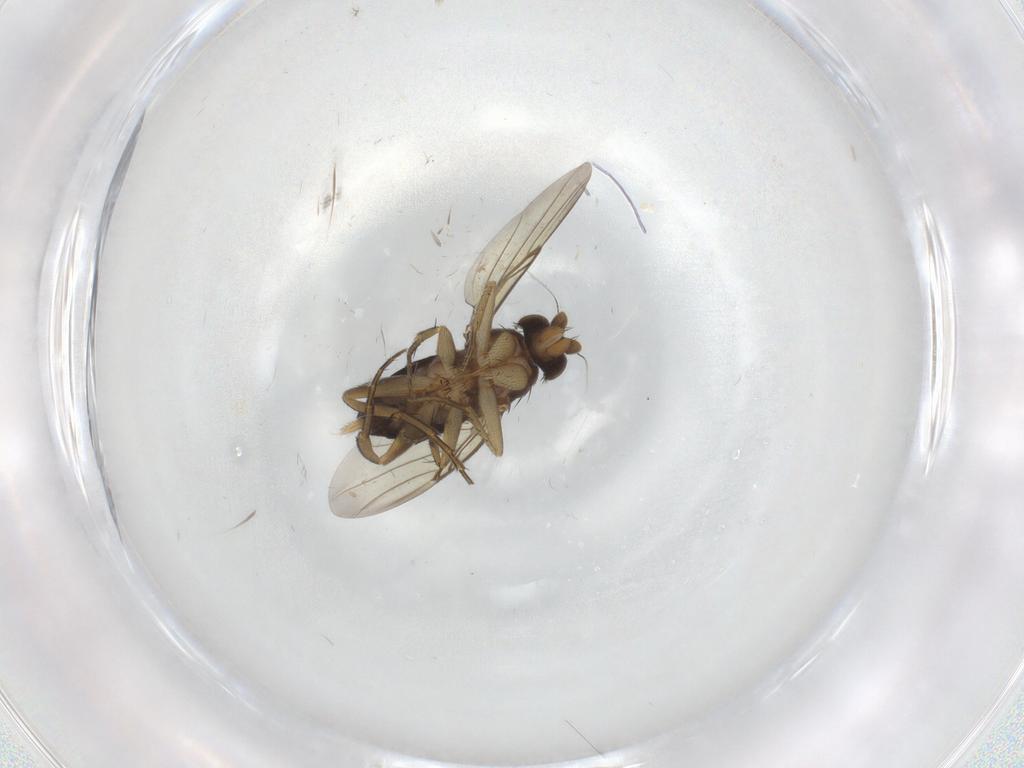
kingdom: Animalia
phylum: Arthropoda
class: Insecta
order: Diptera
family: Phoridae
